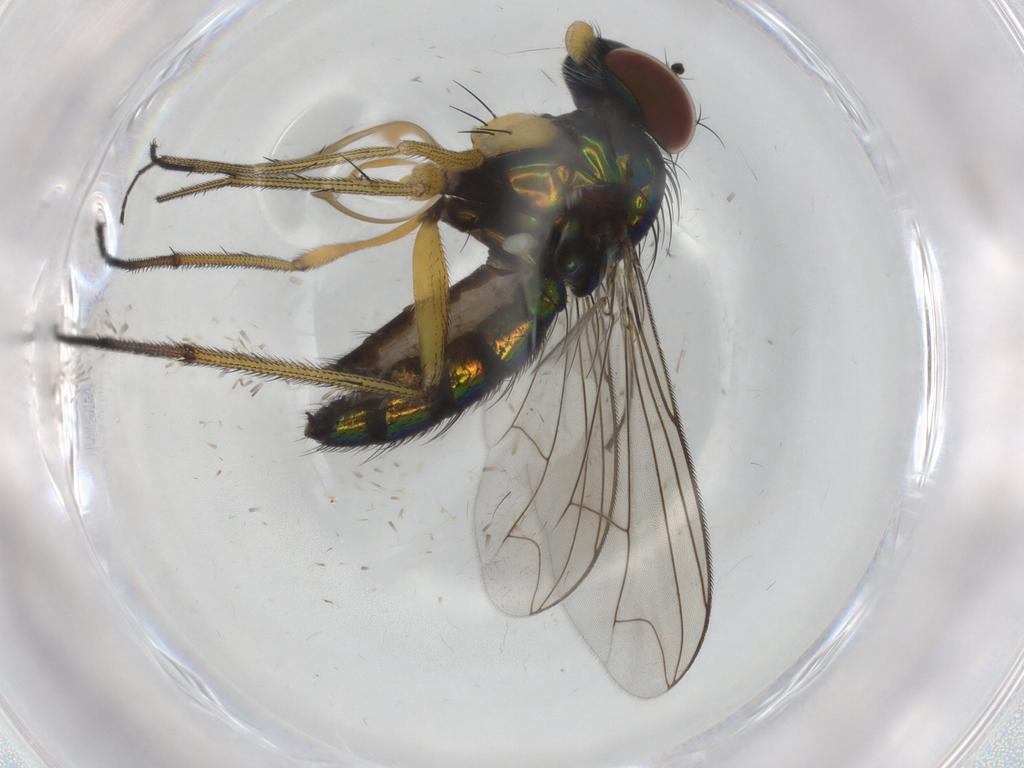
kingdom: Animalia
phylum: Arthropoda
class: Insecta
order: Diptera
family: Dolichopodidae
